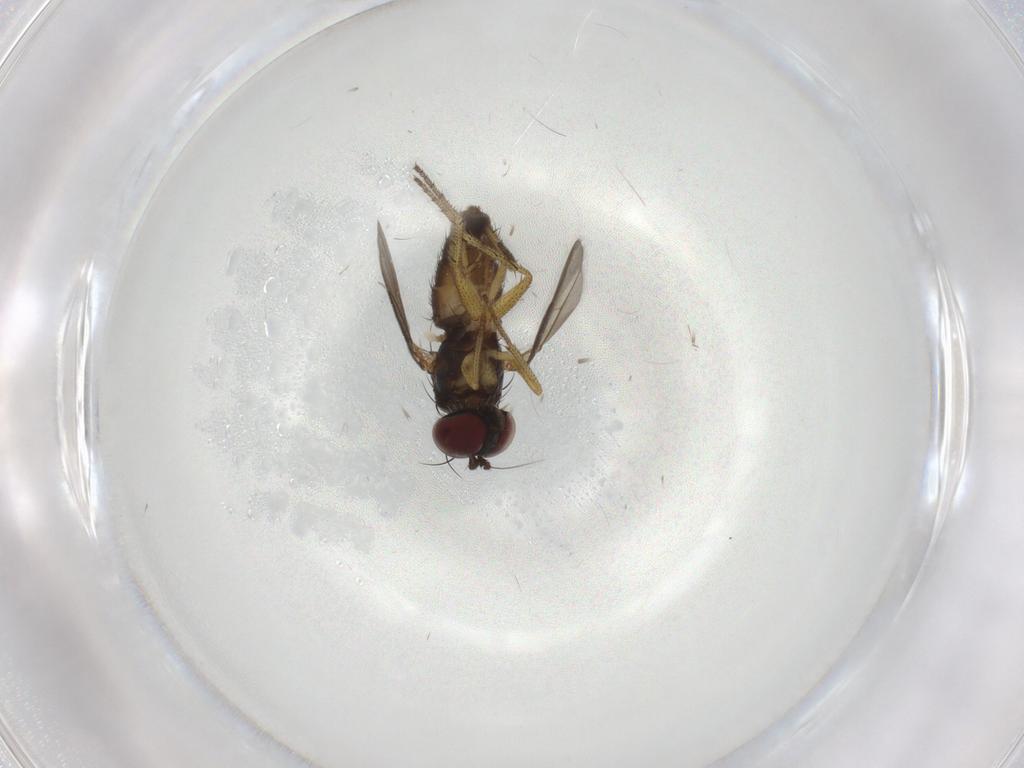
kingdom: Animalia
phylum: Arthropoda
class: Insecta
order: Diptera
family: Dolichopodidae
